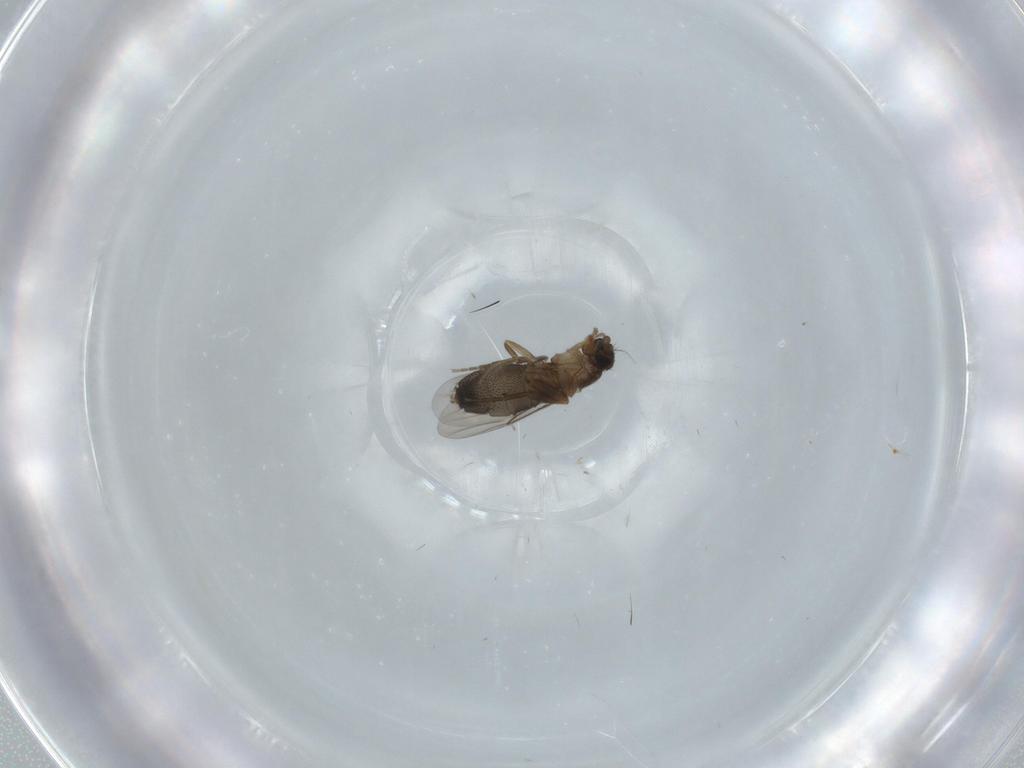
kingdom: Animalia
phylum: Arthropoda
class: Insecta
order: Diptera
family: Phoridae
